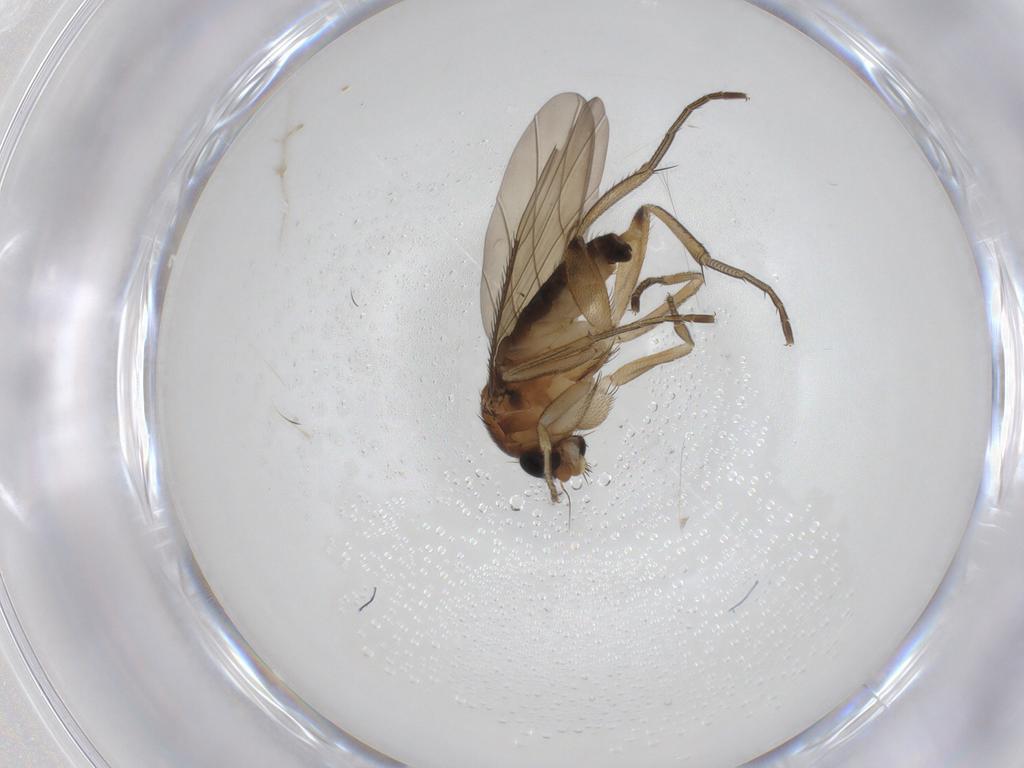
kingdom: Animalia
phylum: Arthropoda
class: Insecta
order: Diptera
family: Phoridae
